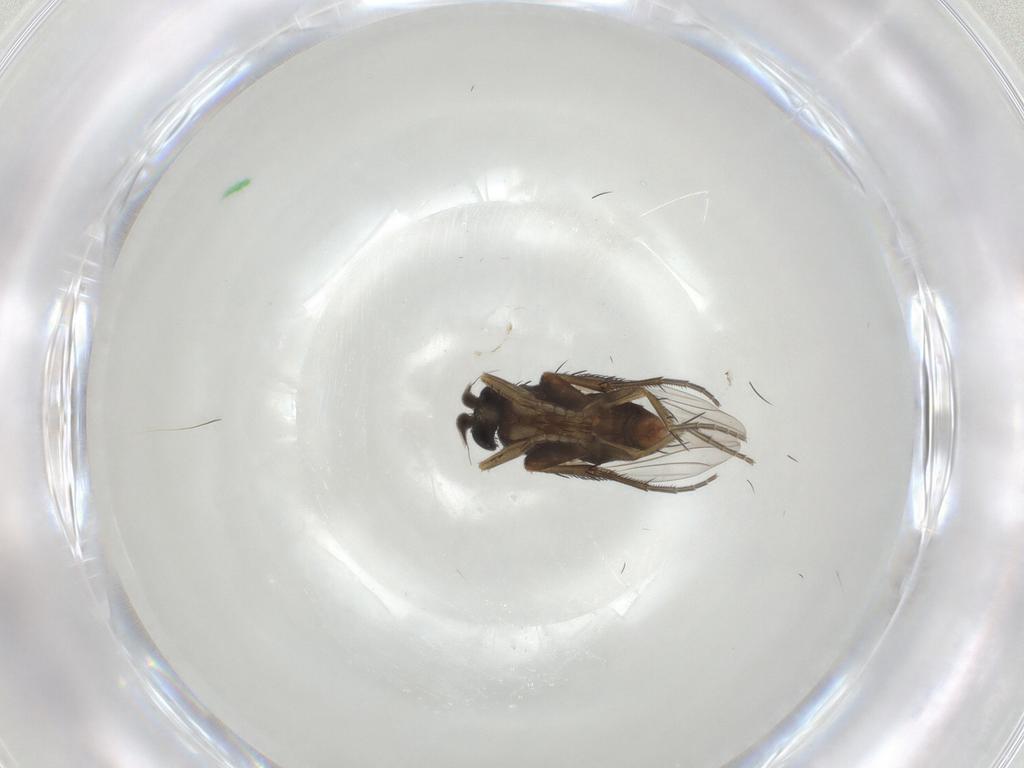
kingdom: Animalia
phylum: Arthropoda
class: Insecta
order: Diptera
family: Phoridae
